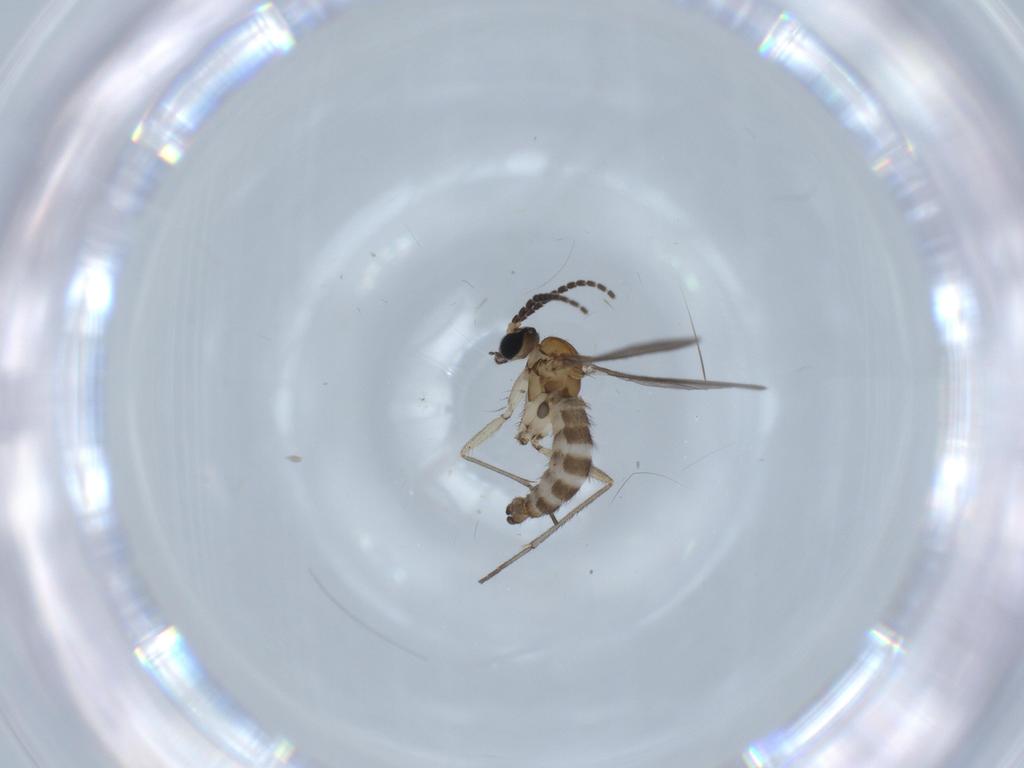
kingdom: Animalia
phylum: Arthropoda
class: Insecta
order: Diptera
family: Sciaridae
